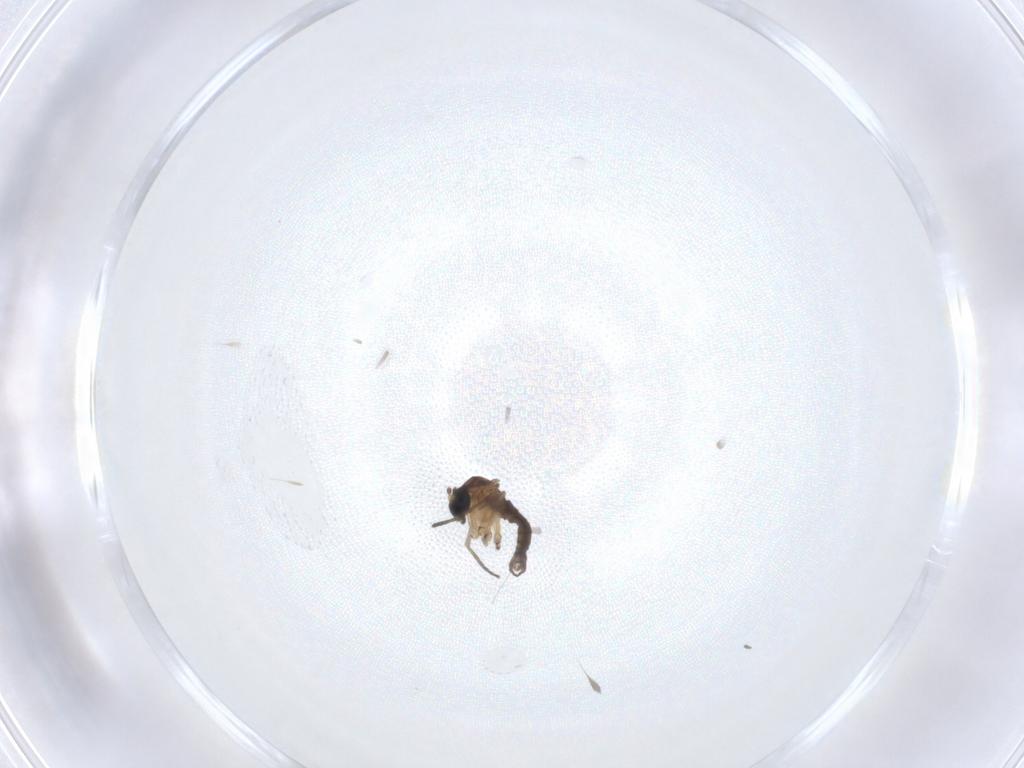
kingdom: Animalia
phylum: Arthropoda
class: Insecta
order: Diptera
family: Sciaridae
